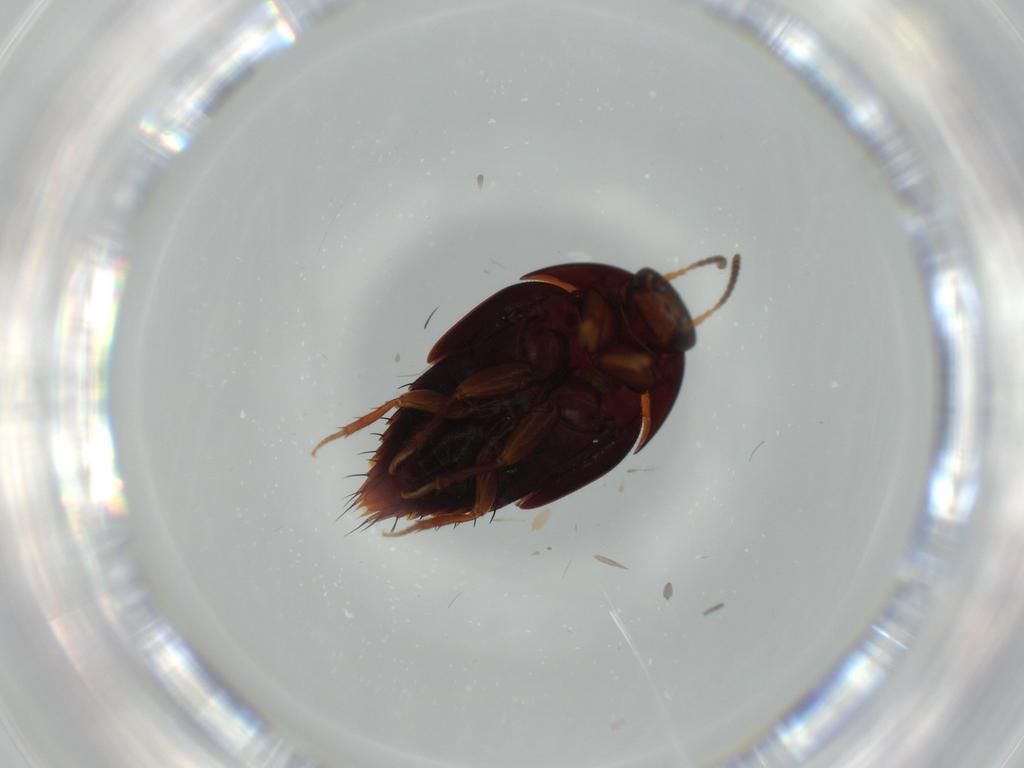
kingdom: Animalia
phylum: Arthropoda
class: Insecta
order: Coleoptera
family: Staphylinidae
